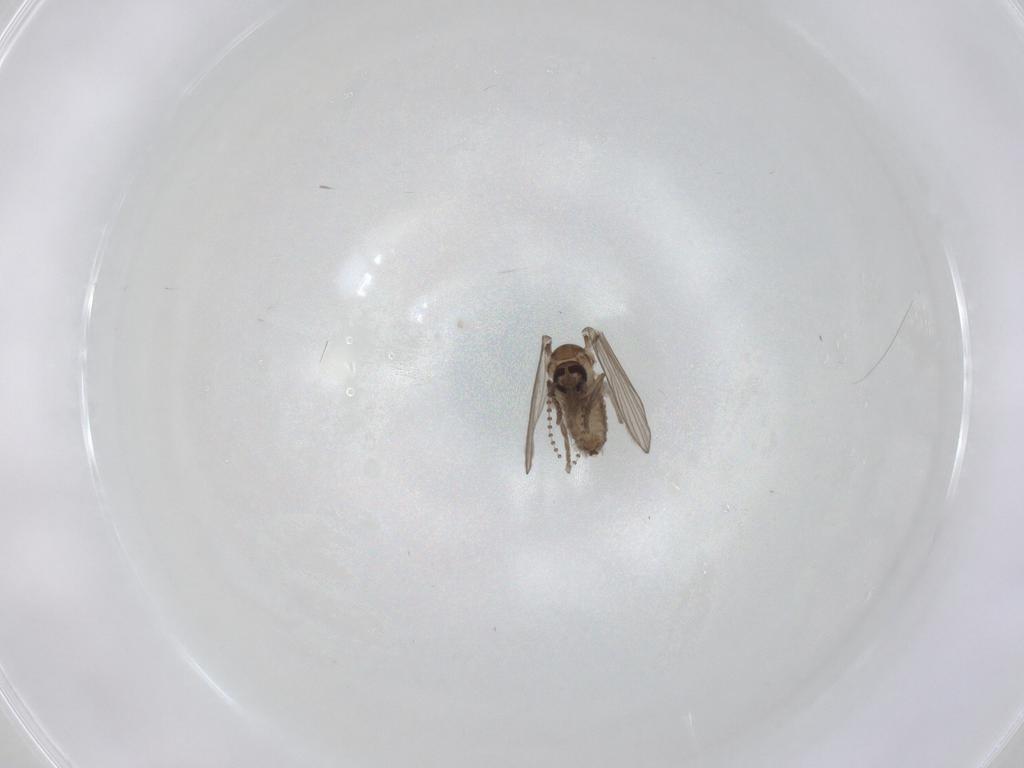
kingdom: Animalia
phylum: Arthropoda
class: Insecta
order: Diptera
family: Psychodidae
